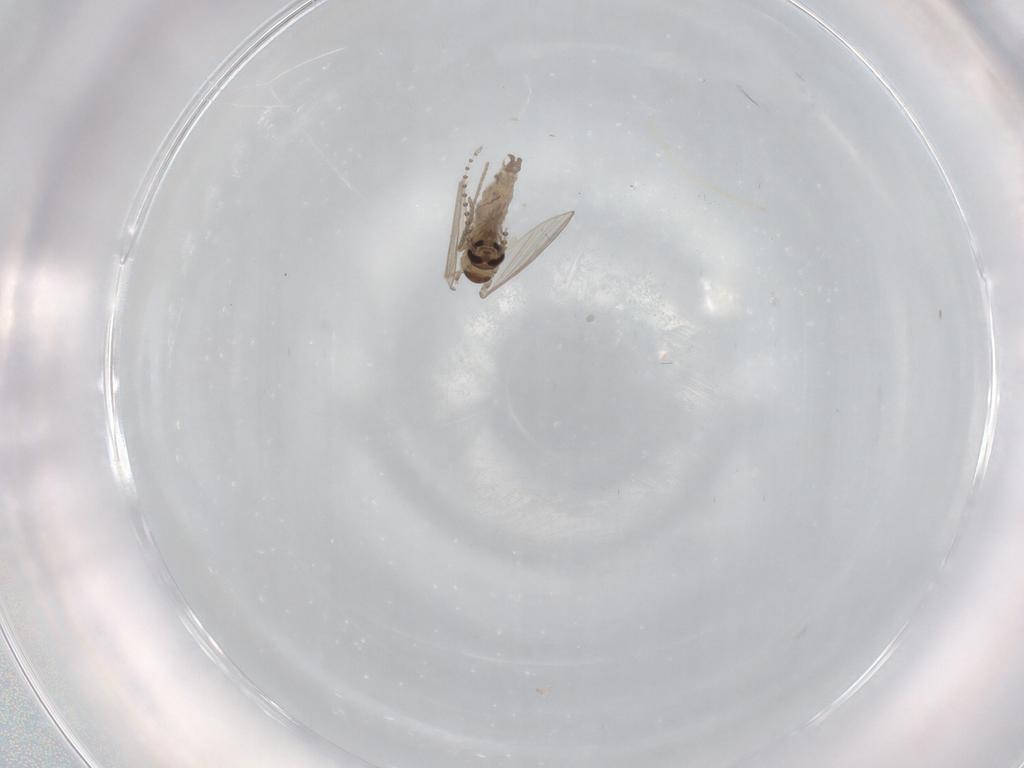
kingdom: Animalia
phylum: Arthropoda
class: Insecta
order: Diptera
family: Psychodidae
